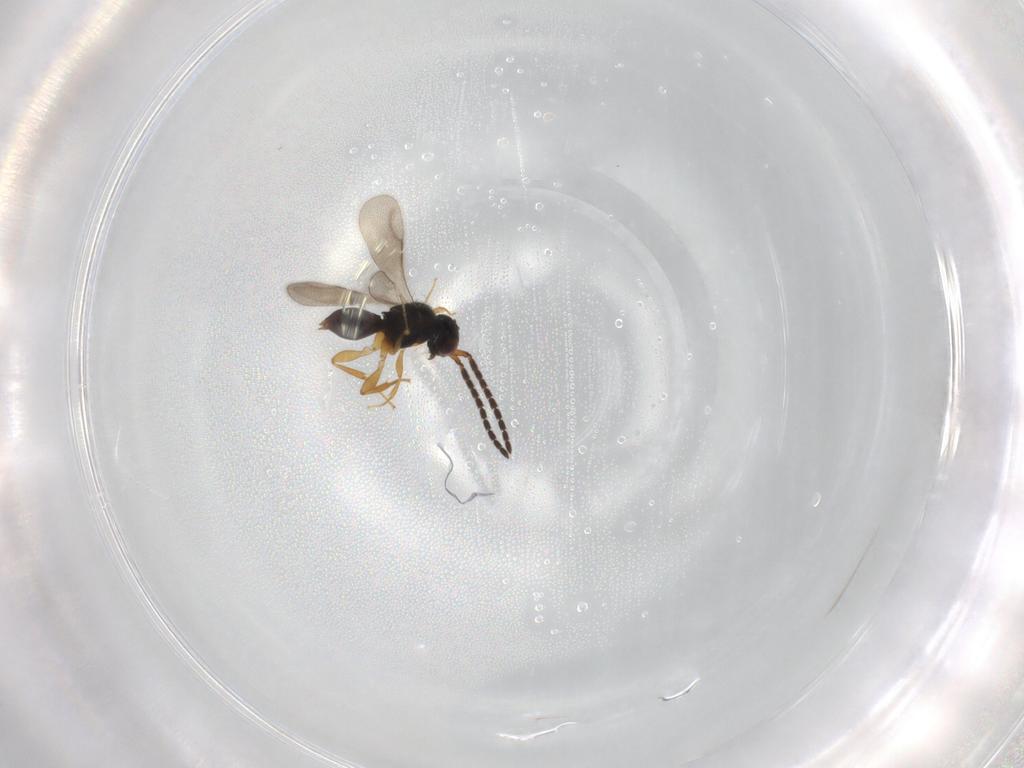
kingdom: Animalia
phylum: Arthropoda
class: Insecta
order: Hymenoptera
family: Ceraphronidae
